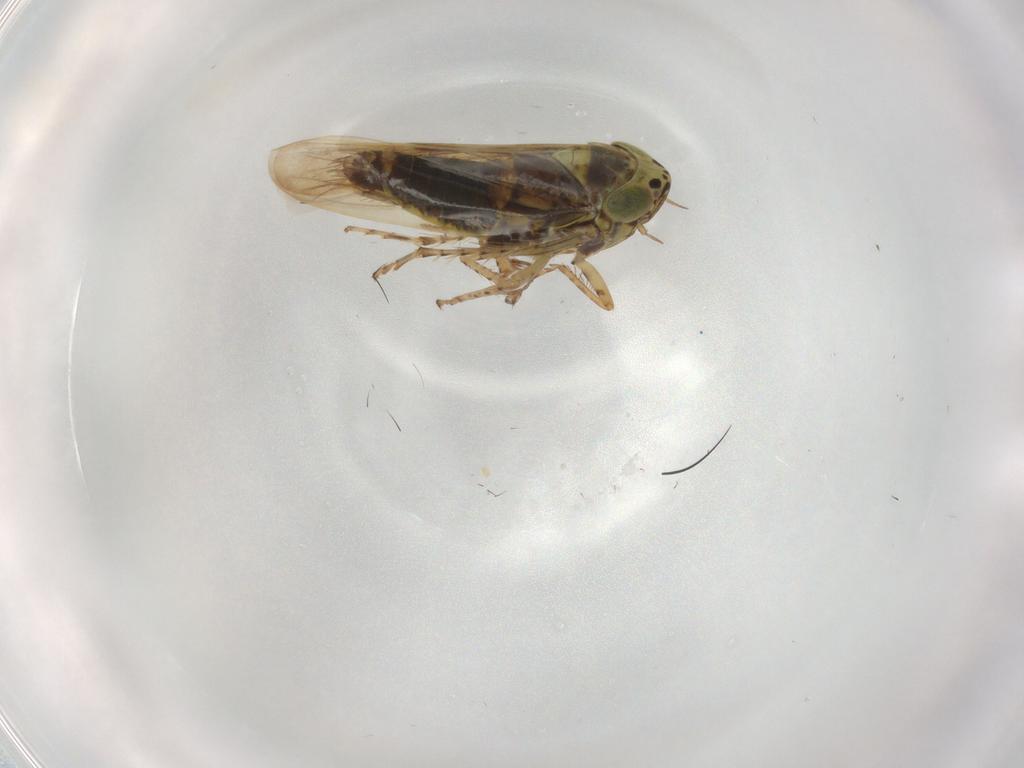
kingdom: Animalia
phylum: Arthropoda
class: Insecta
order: Hemiptera
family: Cicadellidae
